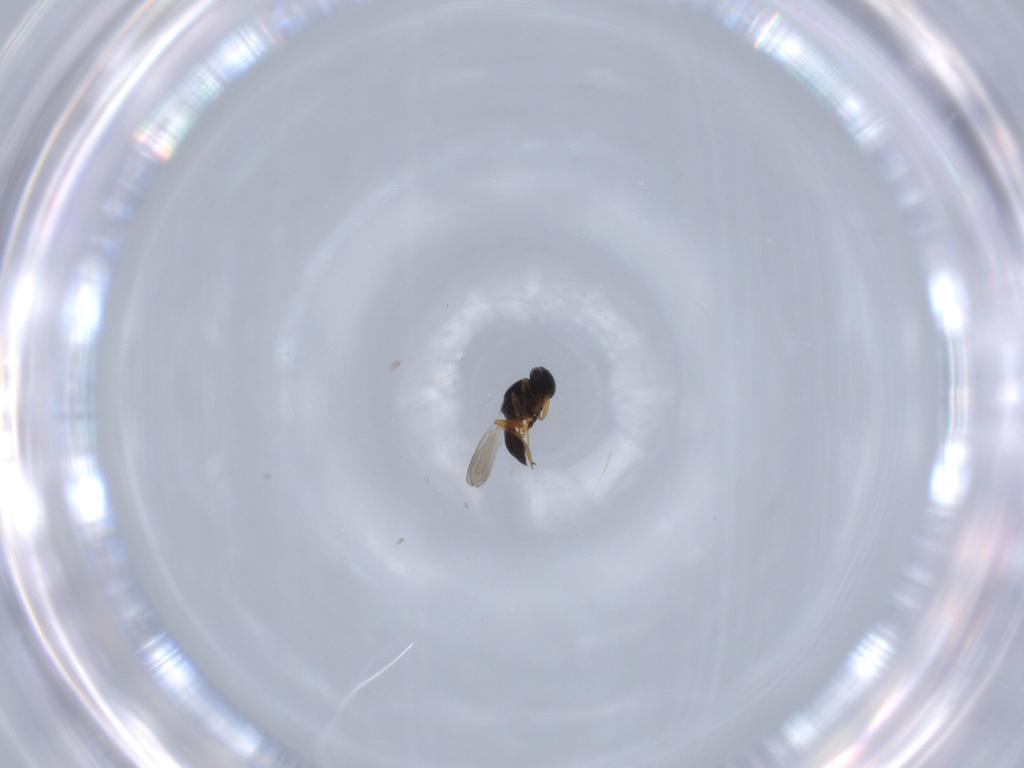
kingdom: Animalia
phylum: Arthropoda
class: Insecta
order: Hymenoptera
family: Platygastridae
